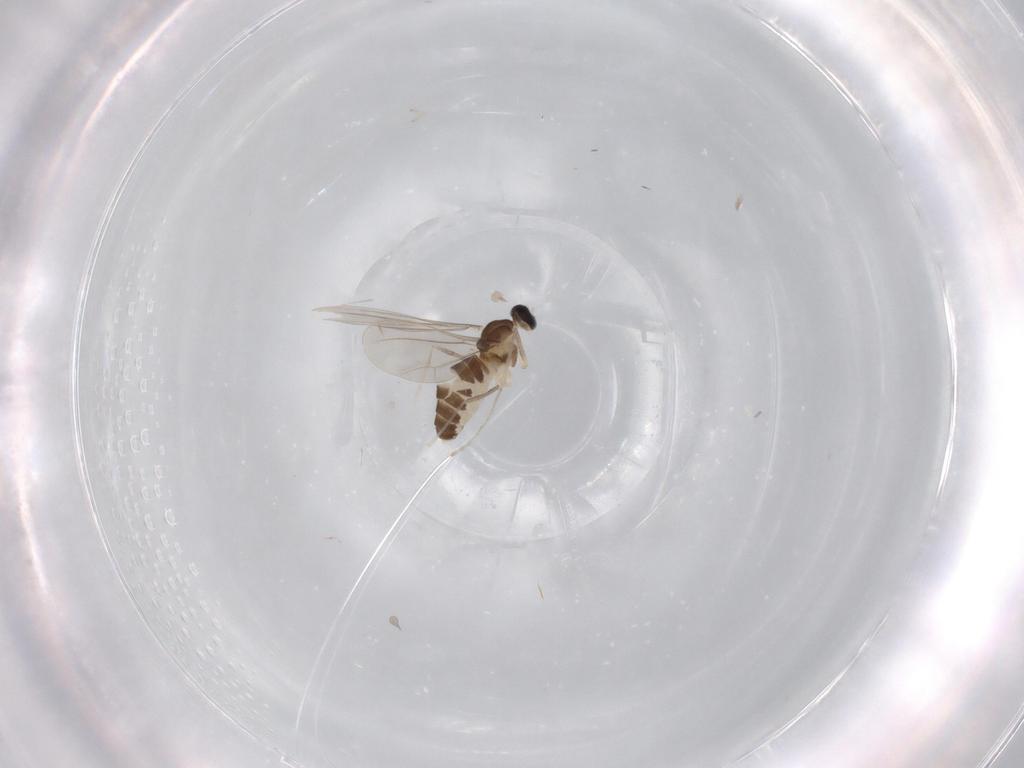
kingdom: Animalia
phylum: Arthropoda
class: Insecta
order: Diptera
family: Cecidomyiidae
